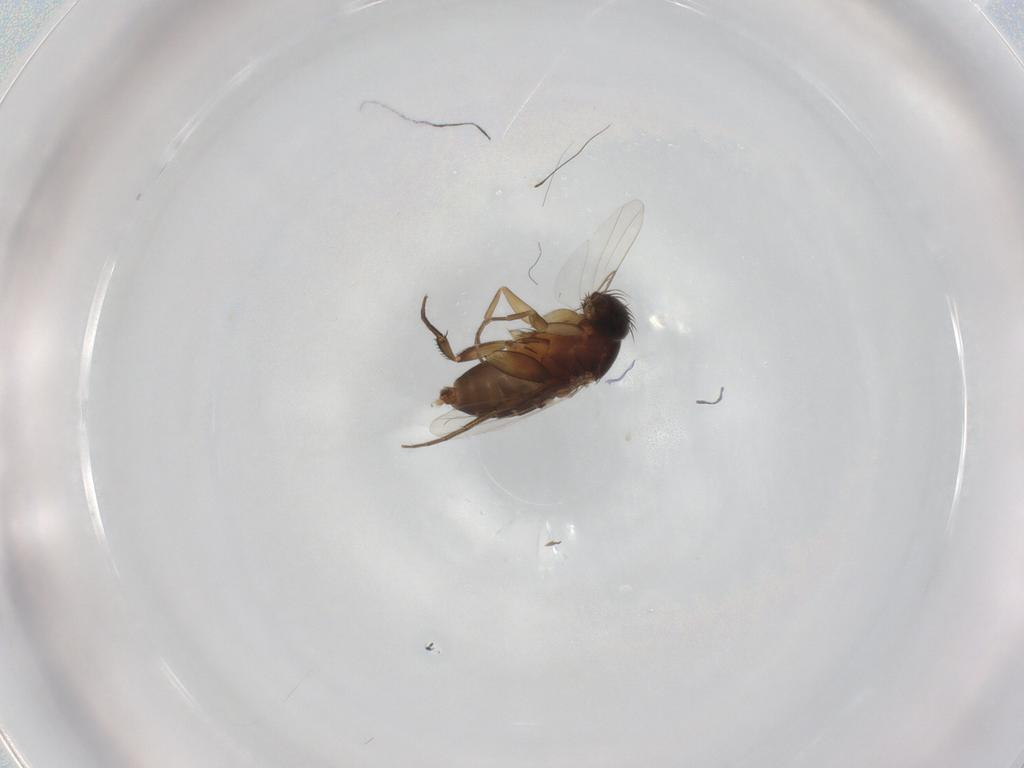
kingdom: Animalia
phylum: Arthropoda
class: Insecta
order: Diptera
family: Phoridae
